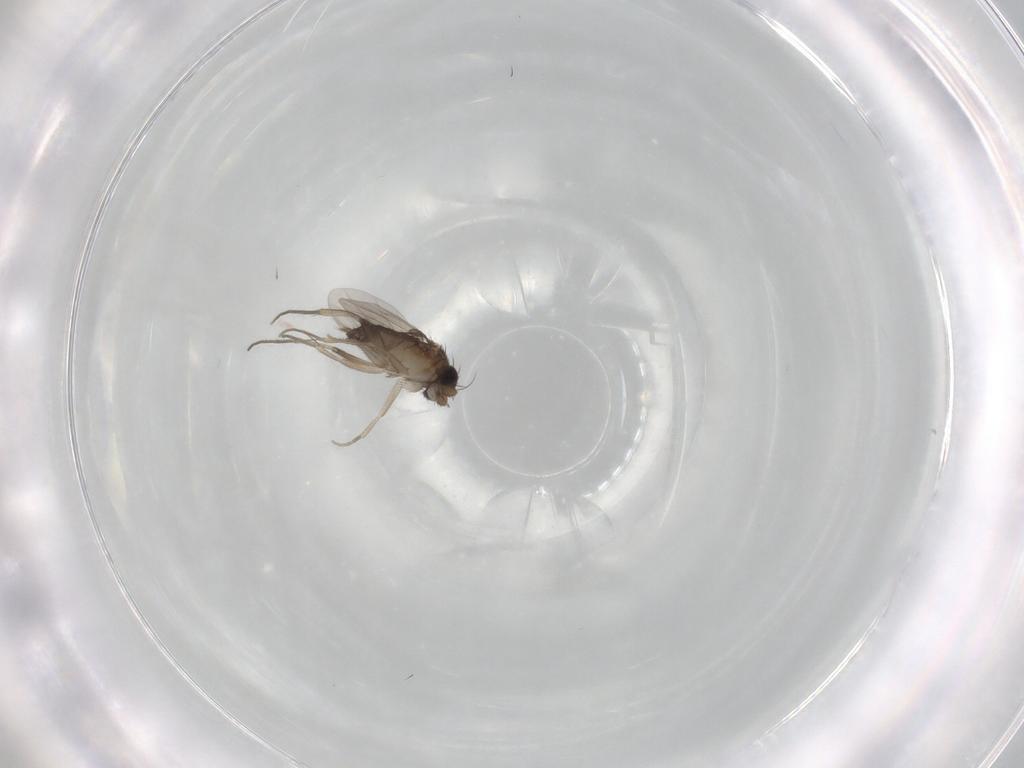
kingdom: Animalia
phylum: Arthropoda
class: Insecta
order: Diptera
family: Phoridae
